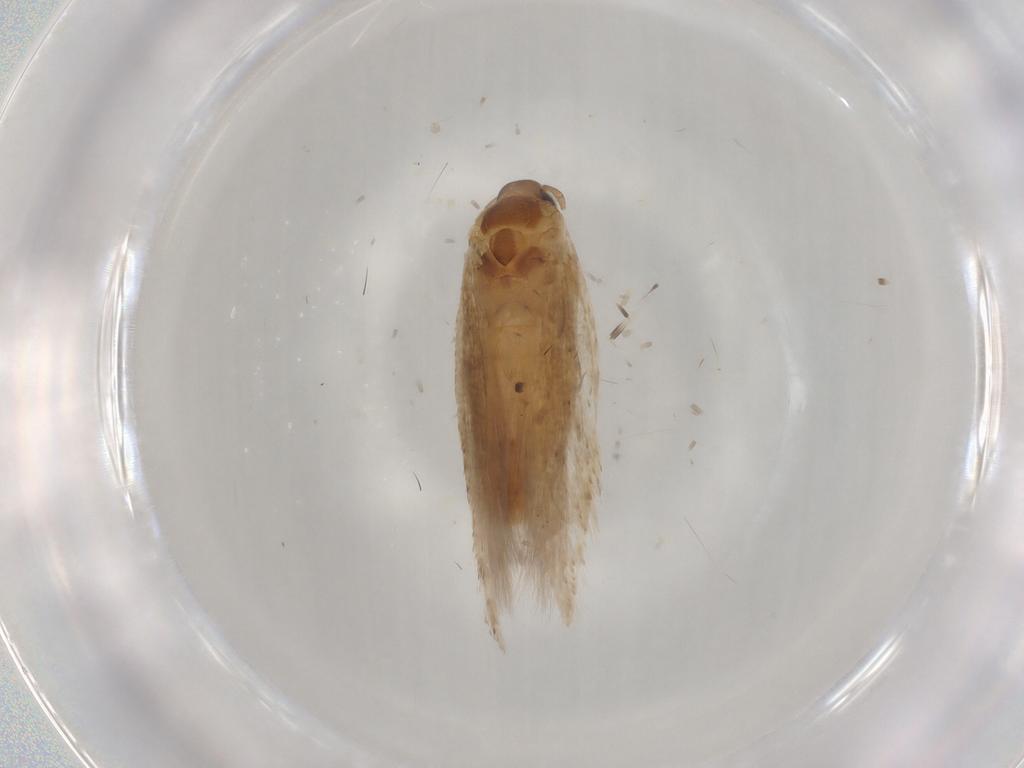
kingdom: Animalia
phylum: Arthropoda
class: Insecta
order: Lepidoptera
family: Gelechiidae
